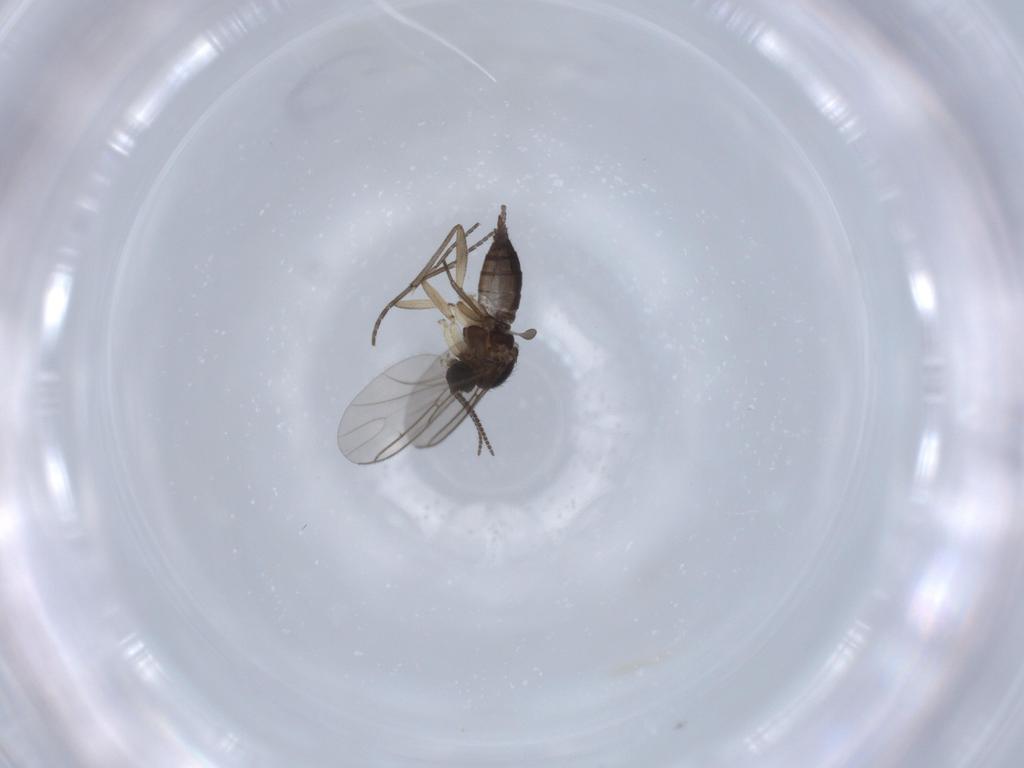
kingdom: Animalia
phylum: Arthropoda
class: Insecta
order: Diptera
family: Sciaridae
